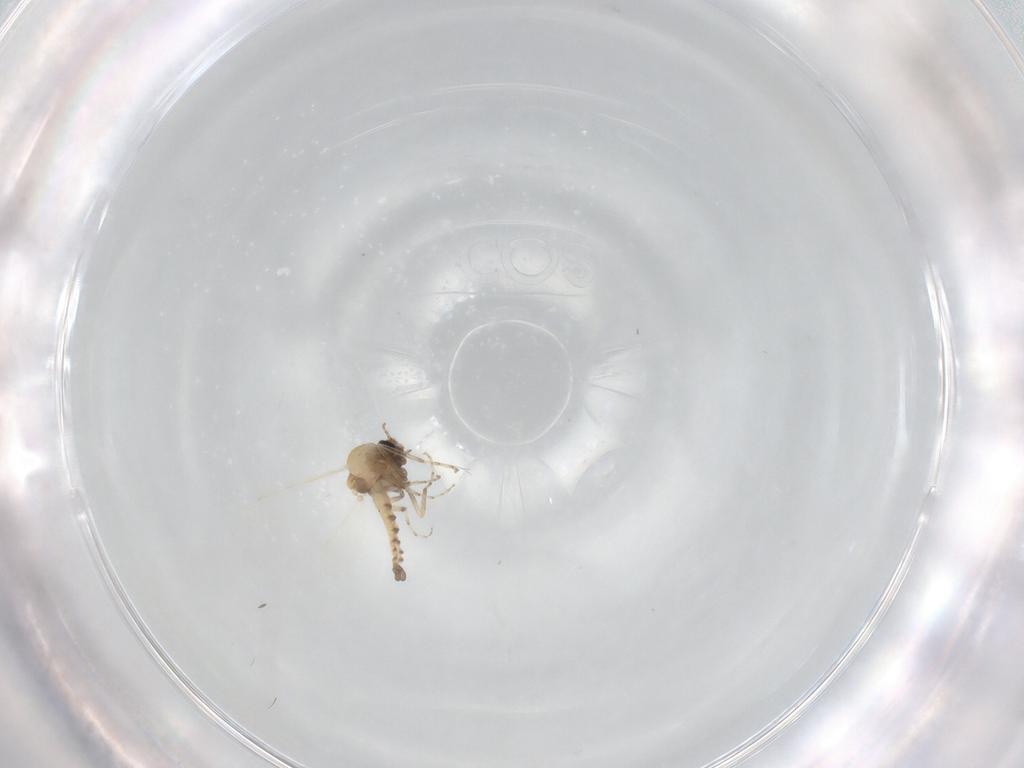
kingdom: Animalia
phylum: Arthropoda
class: Insecta
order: Diptera
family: Ceratopogonidae
